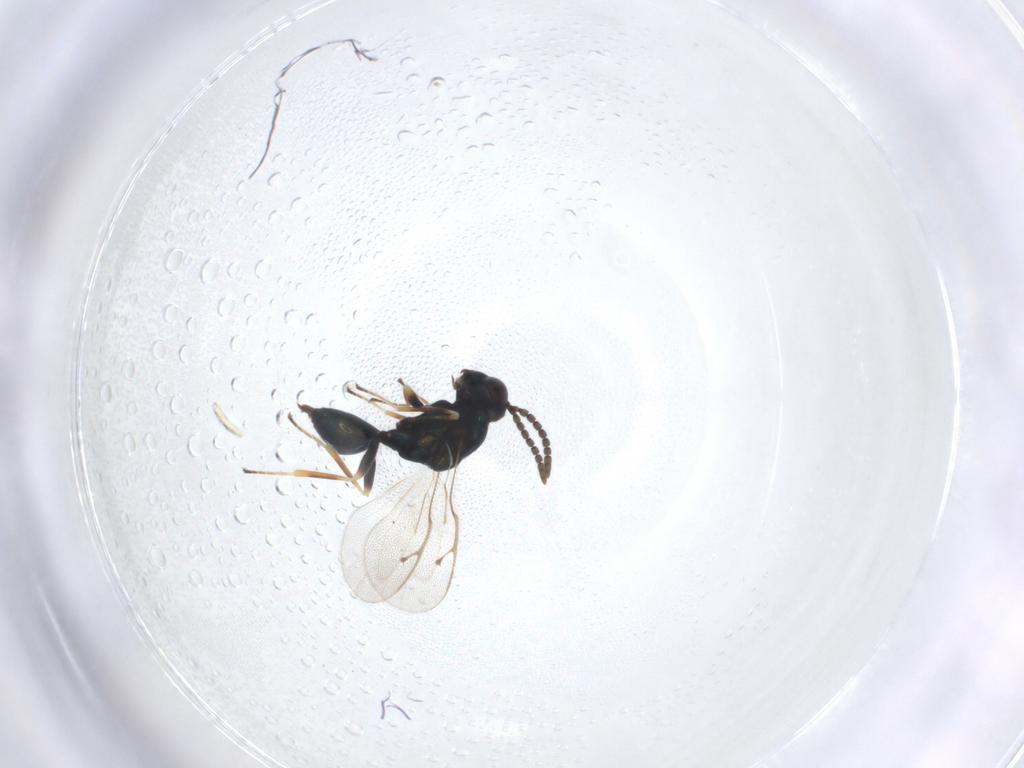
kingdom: Animalia
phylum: Arthropoda
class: Insecta
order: Hymenoptera
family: Pteromalidae
